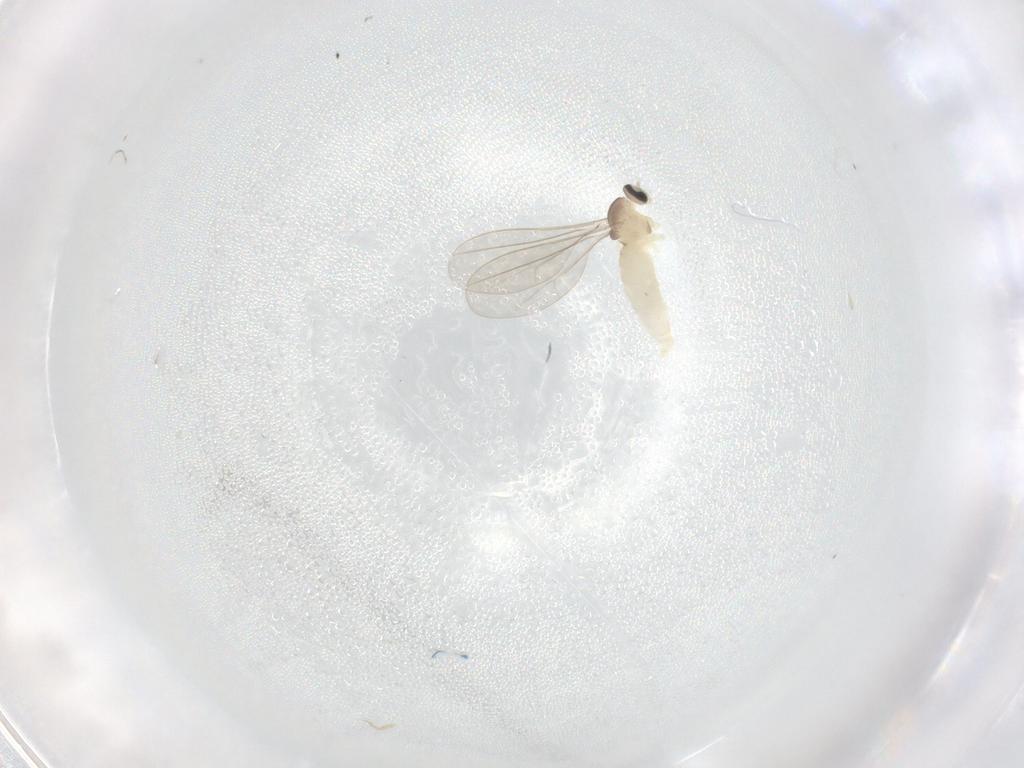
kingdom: Animalia
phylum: Arthropoda
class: Insecta
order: Diptera
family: Cecidomyiidae
